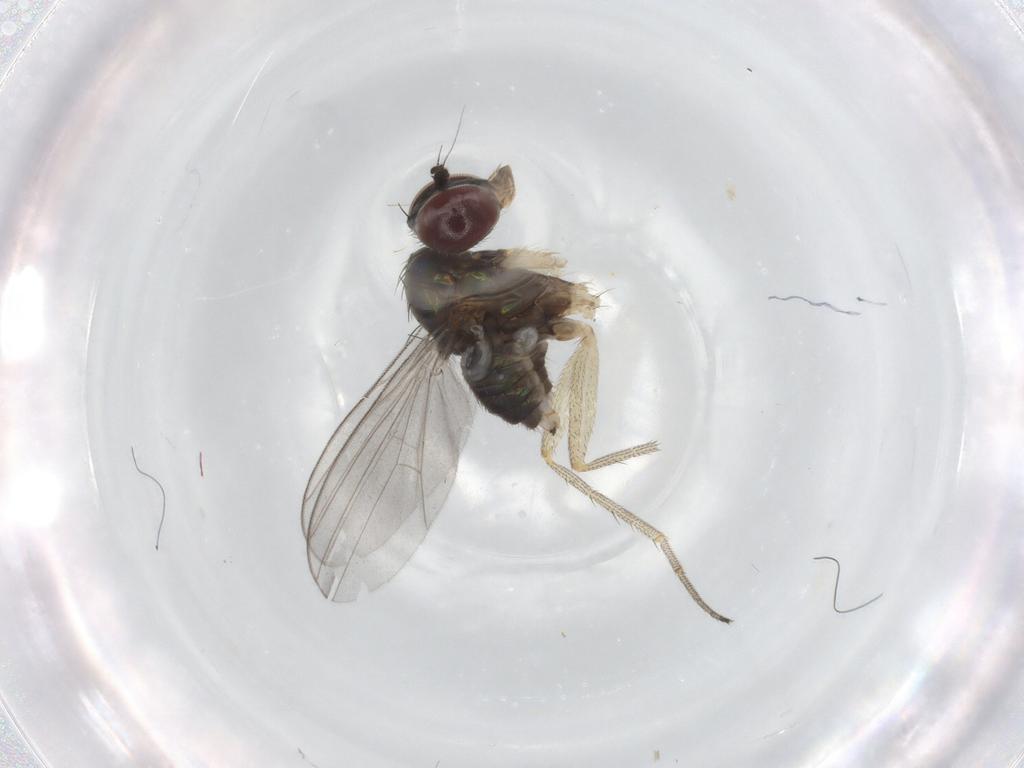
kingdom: Animalia
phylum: Arthropoda
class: Insecta
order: Diptera
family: Dolichopodidae
